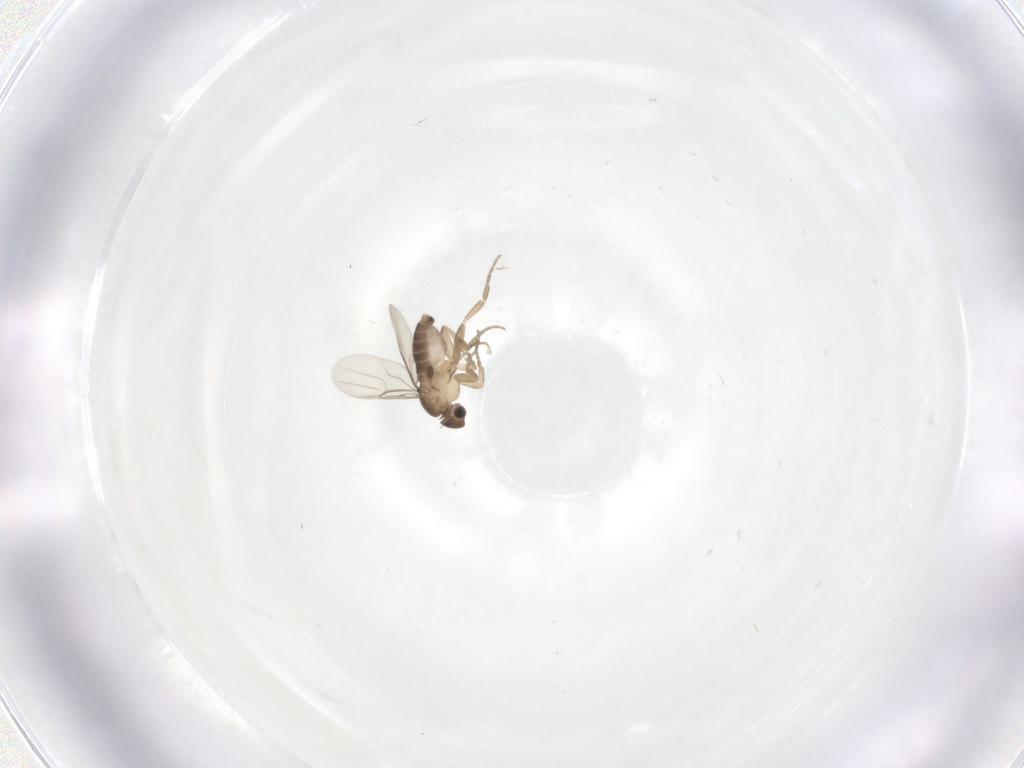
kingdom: Animalia
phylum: Arthropoda
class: Insecta
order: Diptera
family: Phoridae
